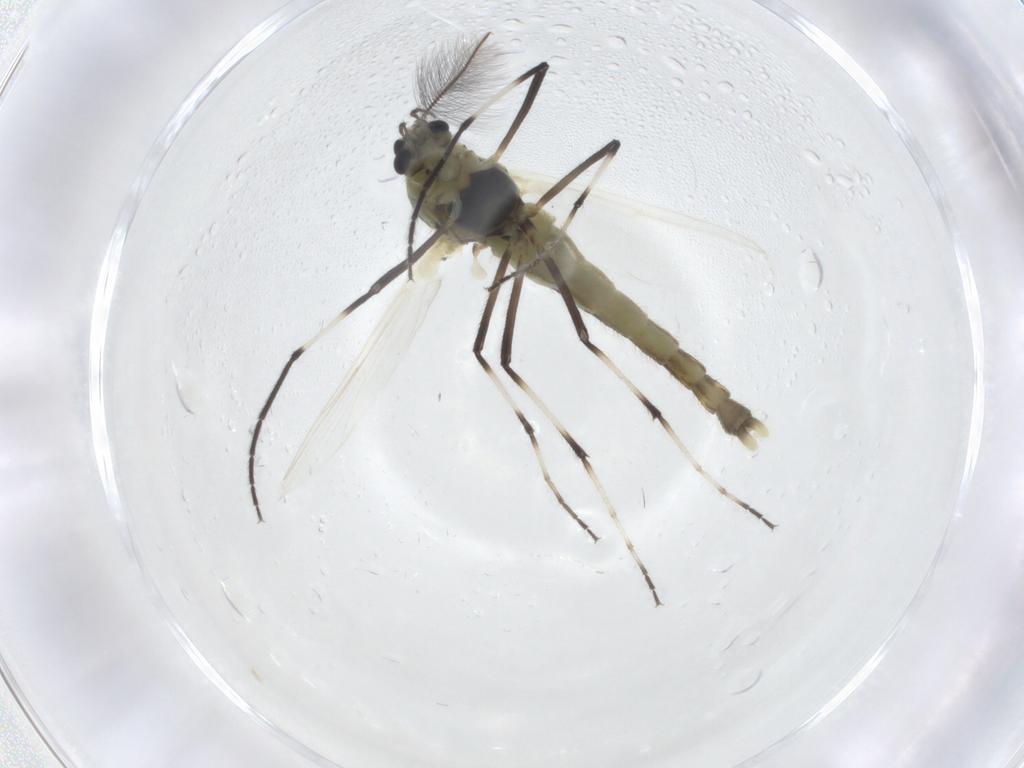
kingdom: Animalia
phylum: Arthropoda
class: Insecta
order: Diptera
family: Chironomidae
